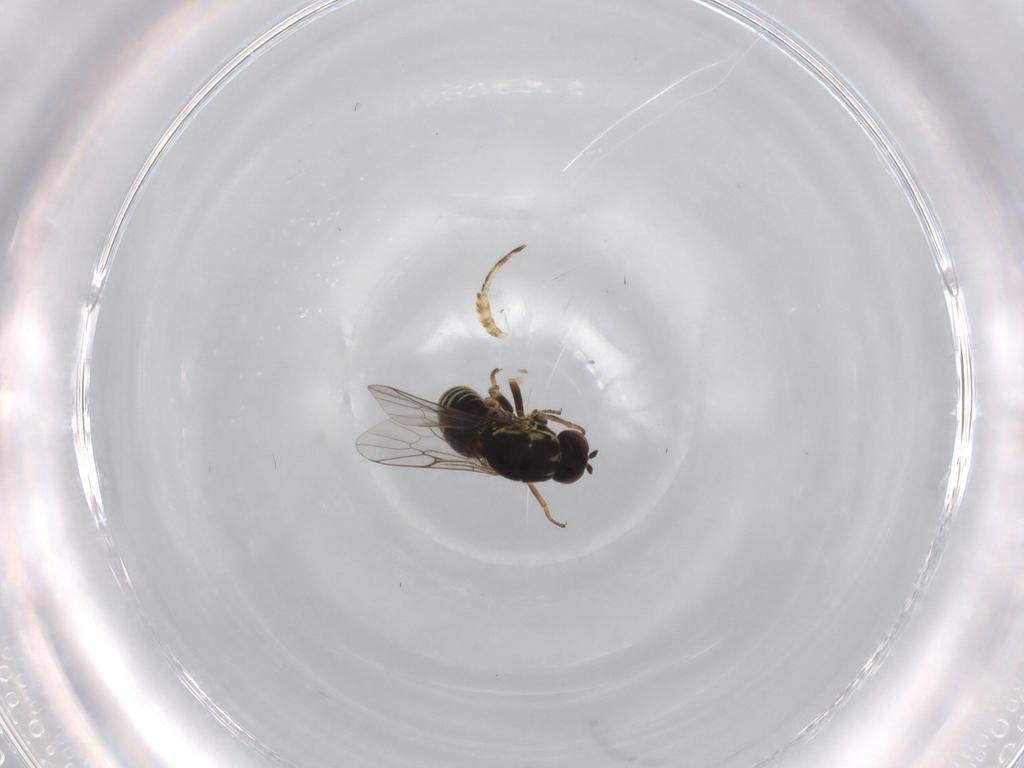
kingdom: Animalia
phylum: Arthropoda
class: Insecta
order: Diptera
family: Bombyliidae
